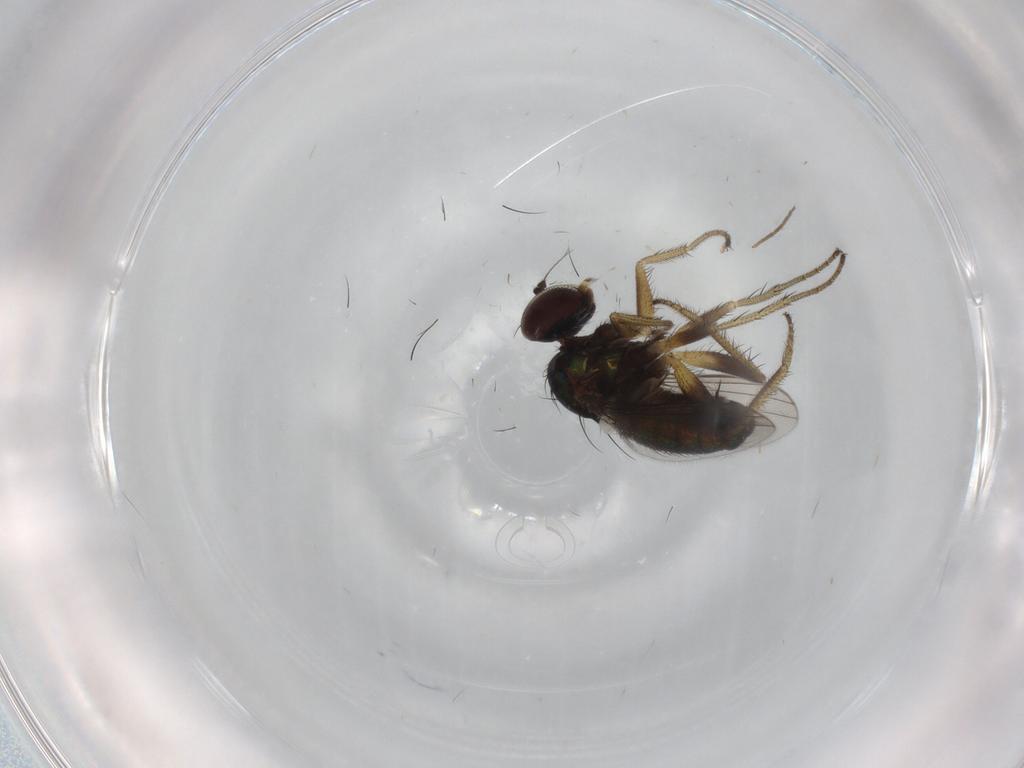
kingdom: Animalia
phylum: Arthropoda
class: Insecta
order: Diptera
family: Dolichopodidae
